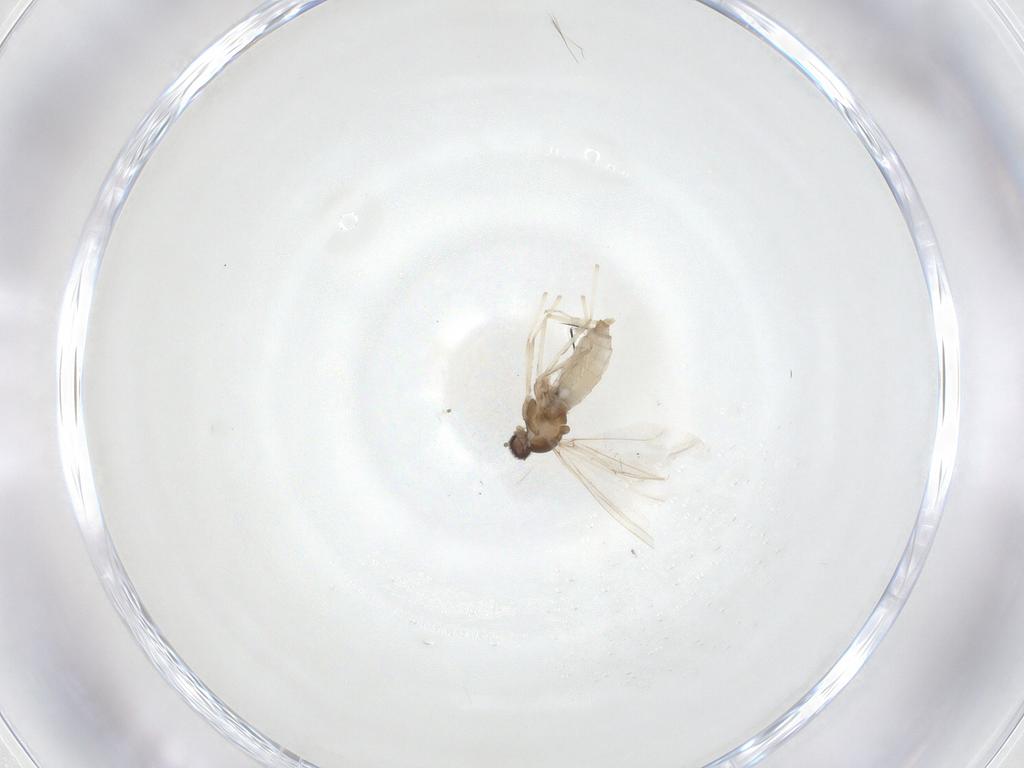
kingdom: Animalia
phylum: Arthropoda
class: Insecta
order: Diptera
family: Cecidomyiidae
